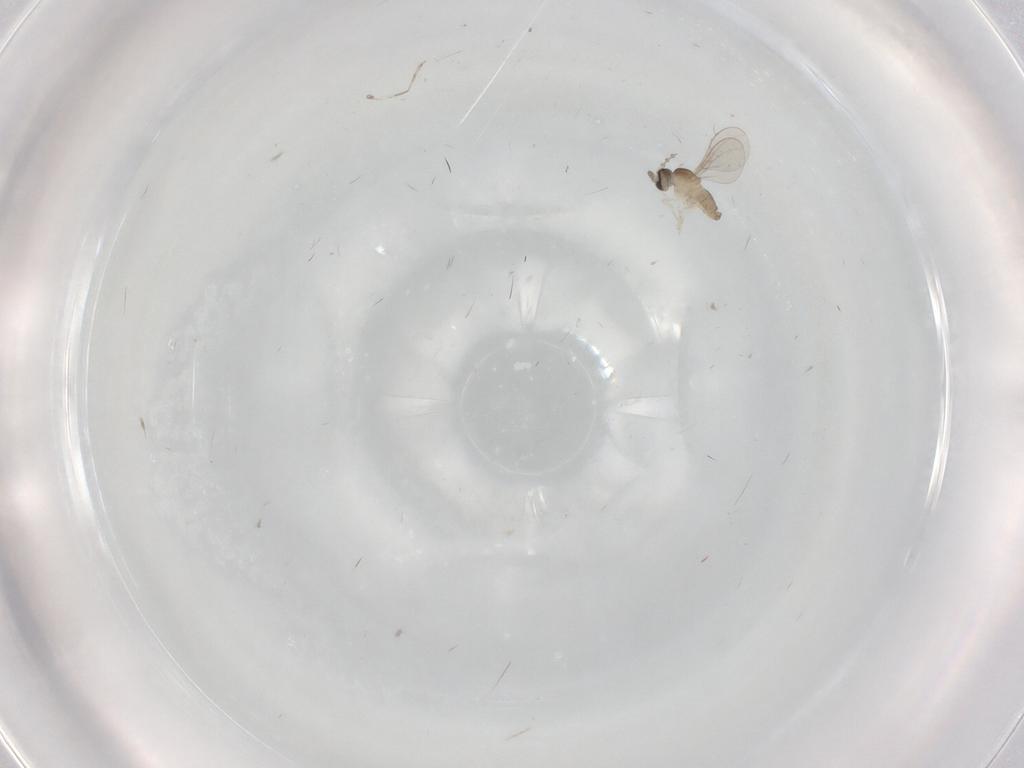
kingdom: Animalia
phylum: Arthropoda
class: Insecta
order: Diptera
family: Cecidomyiidae
